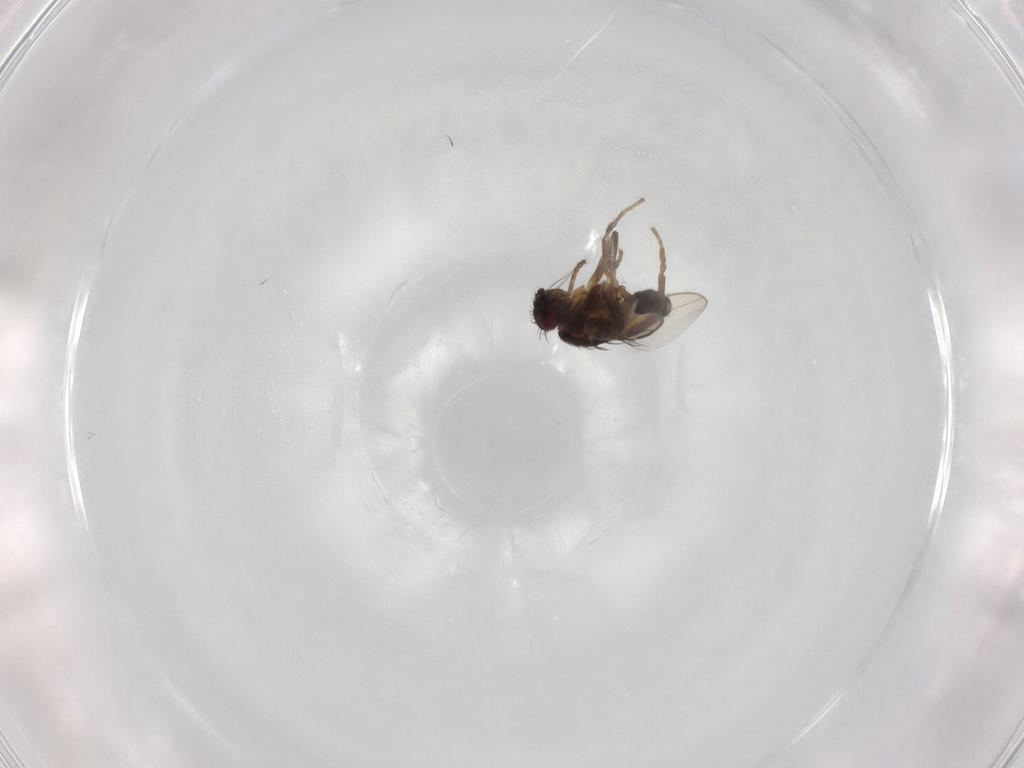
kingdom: Animalia
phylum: Arthropoda
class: Insecta
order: Diptera
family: Sphaeroceridae
